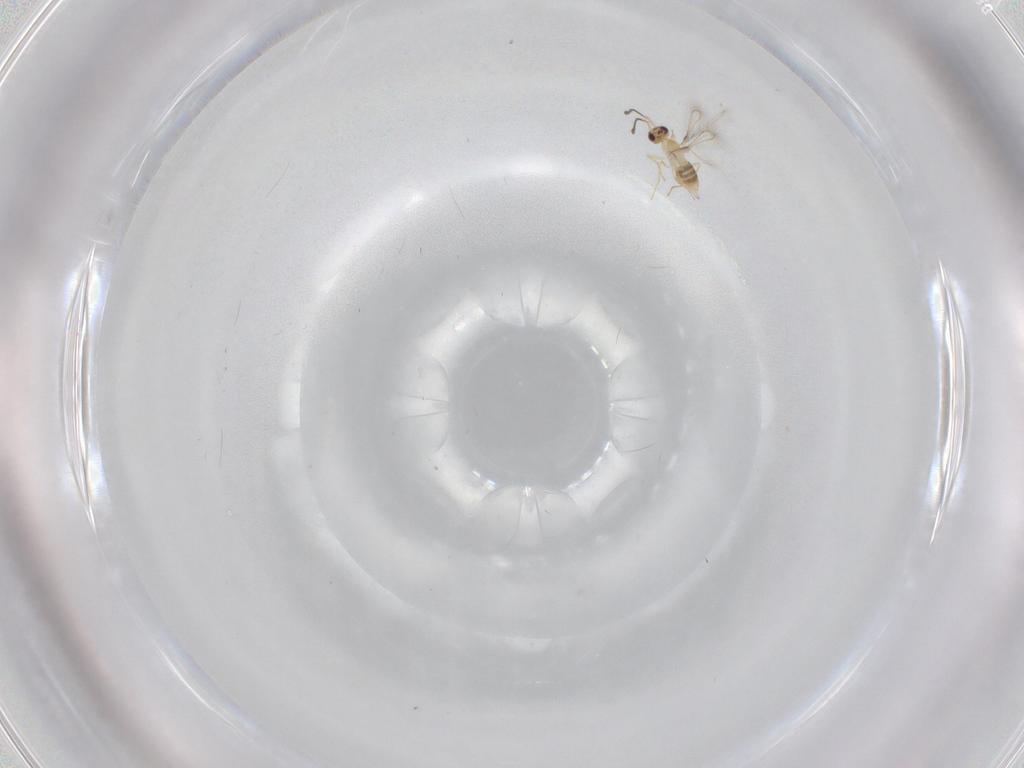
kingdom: Animalia
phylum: Arthropoda
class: Insecta
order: Hymenoptera
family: Mymaridae
